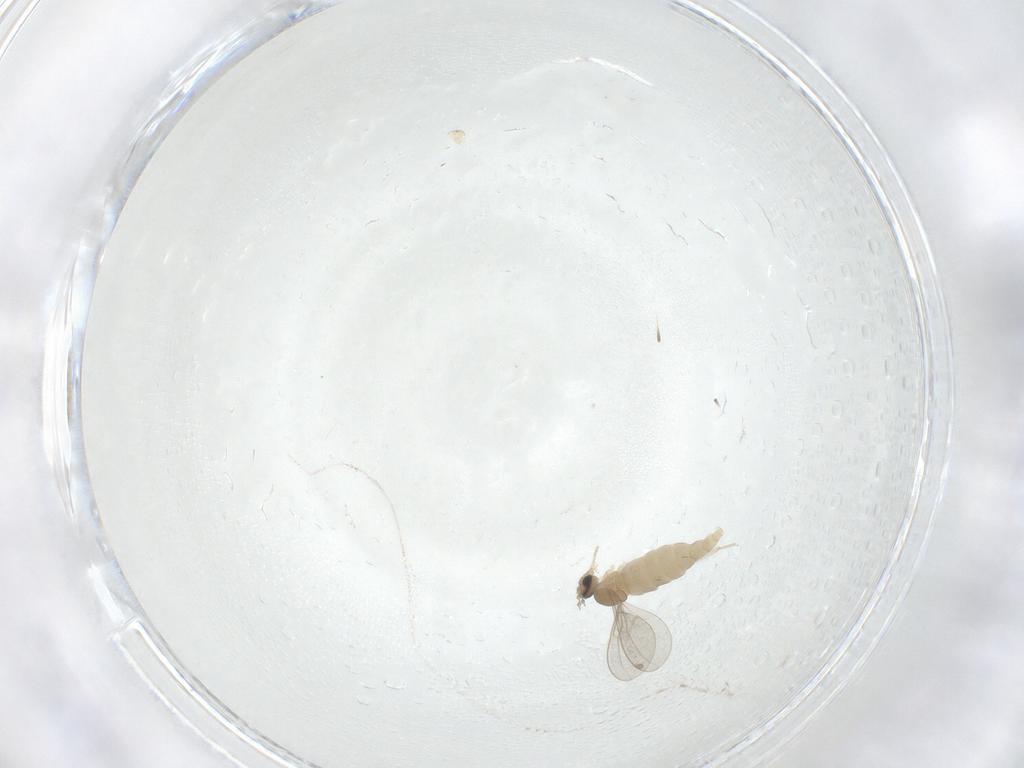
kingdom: Animalia
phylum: Arthropoda
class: Insecta
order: Diptera
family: Cecidomyiidae
